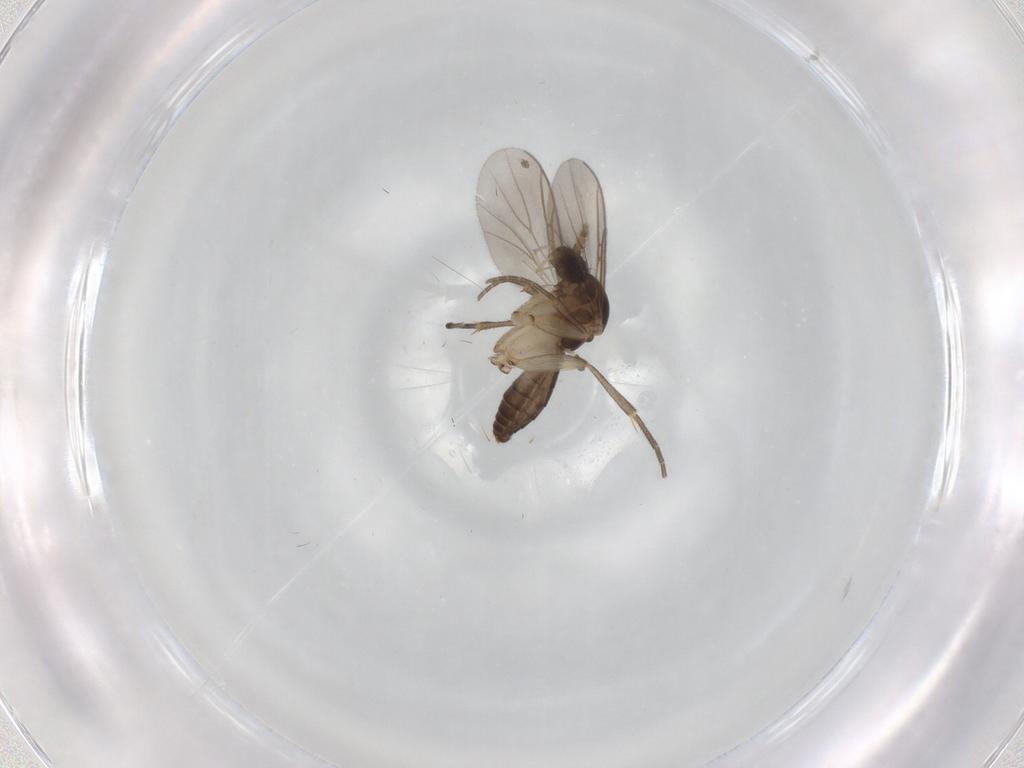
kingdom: Animalia
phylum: Arthropoda
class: Insecta
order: Diptera
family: Mycetophilidae
